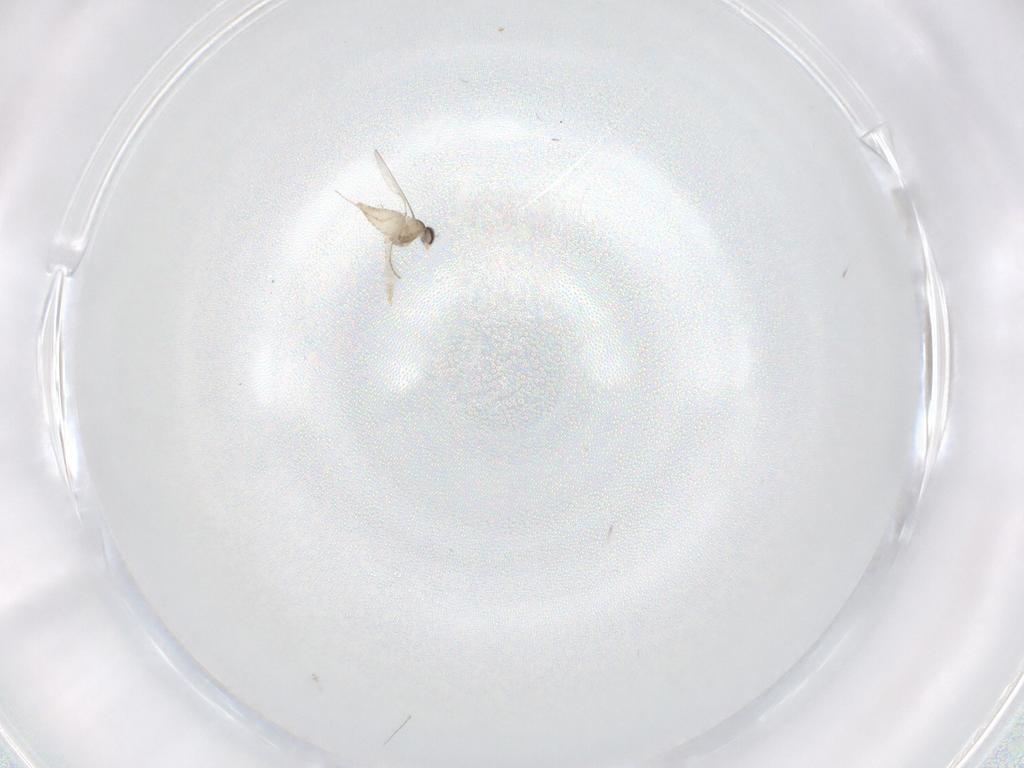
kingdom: Animalia
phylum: Arthropoda
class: Insecta
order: Diptera
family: Cecidomyiidae
